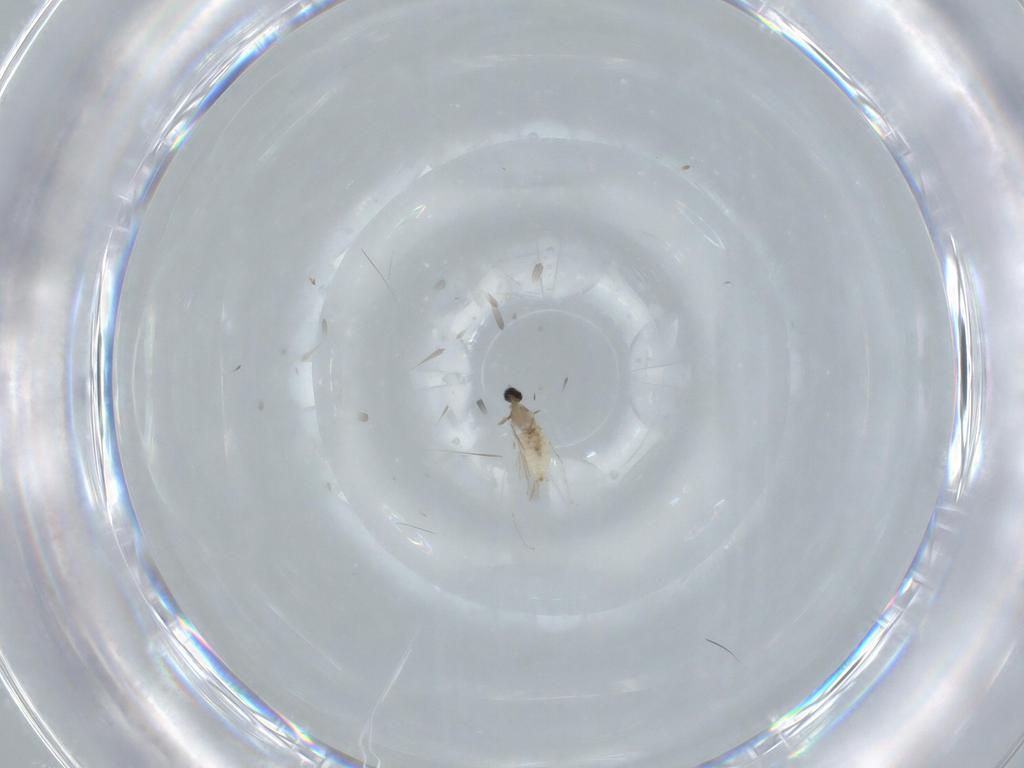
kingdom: Animalia
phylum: Arthropoda
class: Insecta
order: Diptera
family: Cecidomyiidae
